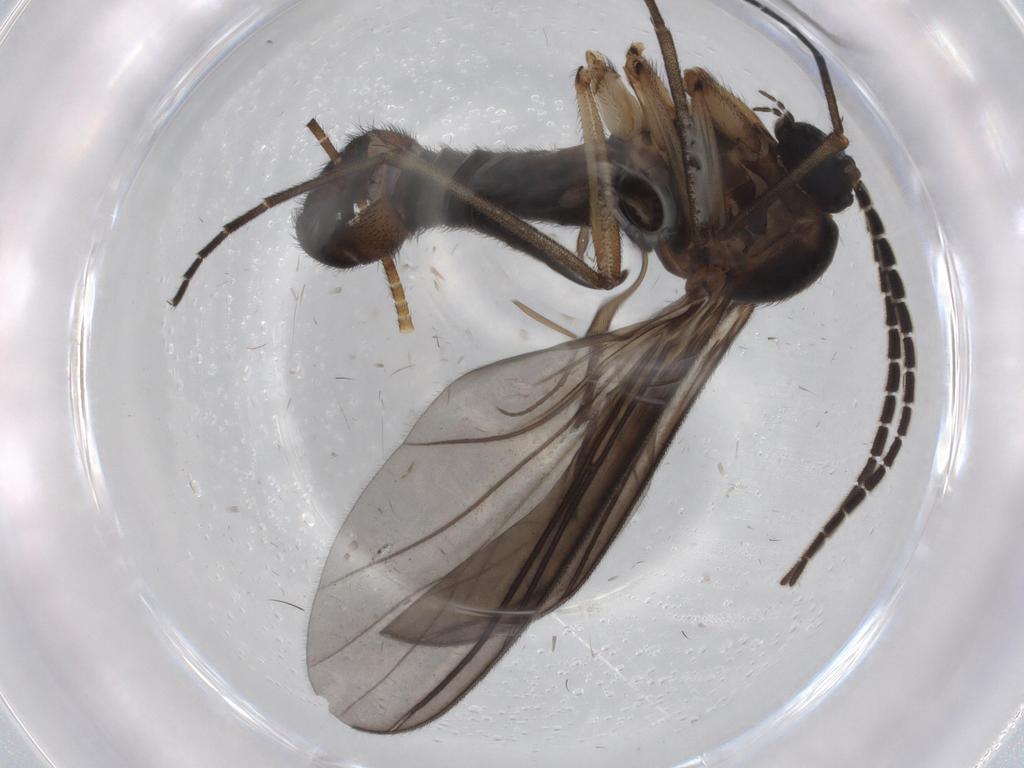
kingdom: Animalia
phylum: Arthropoda
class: Insecta
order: Diptera
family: Sciaridae
